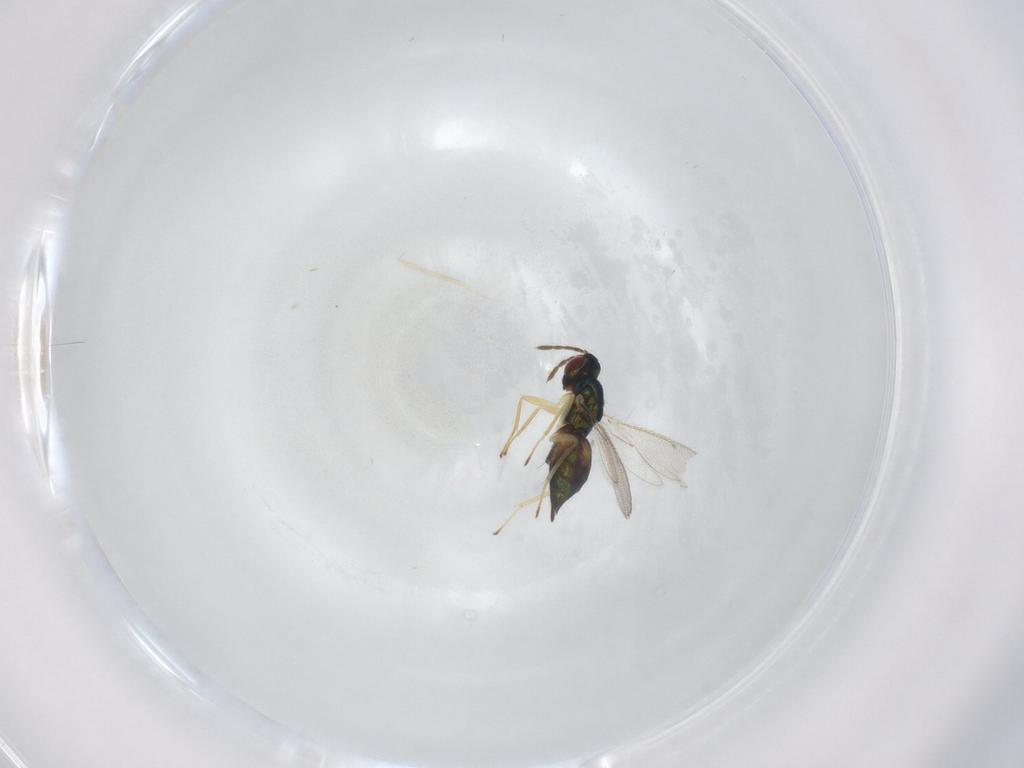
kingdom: Animalia
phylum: Arthropoda
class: Insecta
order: Hymenoptera
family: Eulophidae
